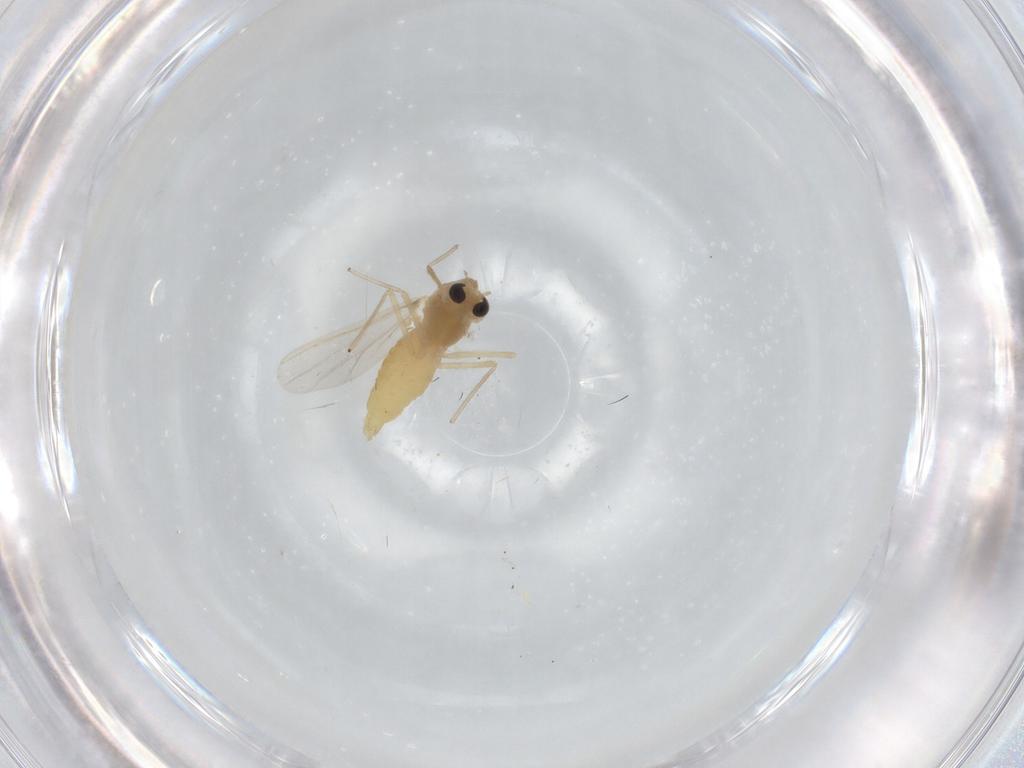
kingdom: Animalia
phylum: Arthropoda
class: Insecta
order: Diptera
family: Chironomidae
